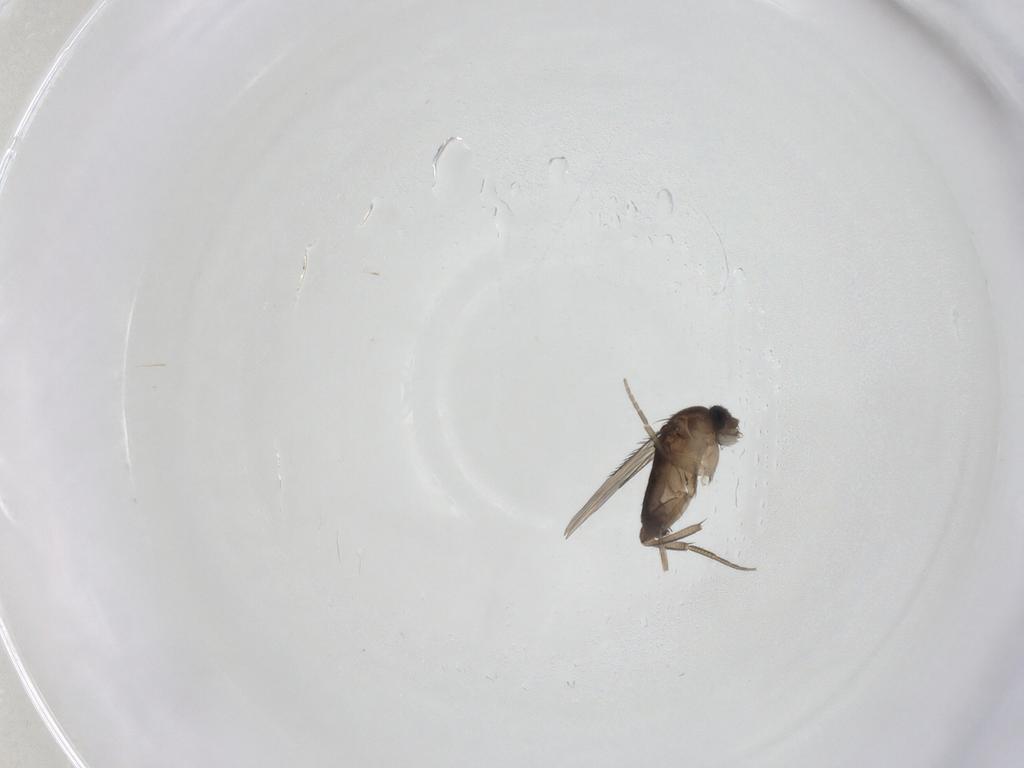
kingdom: Animalia
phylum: Arthropoda
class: Insecta
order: Diptera
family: Phoridae
